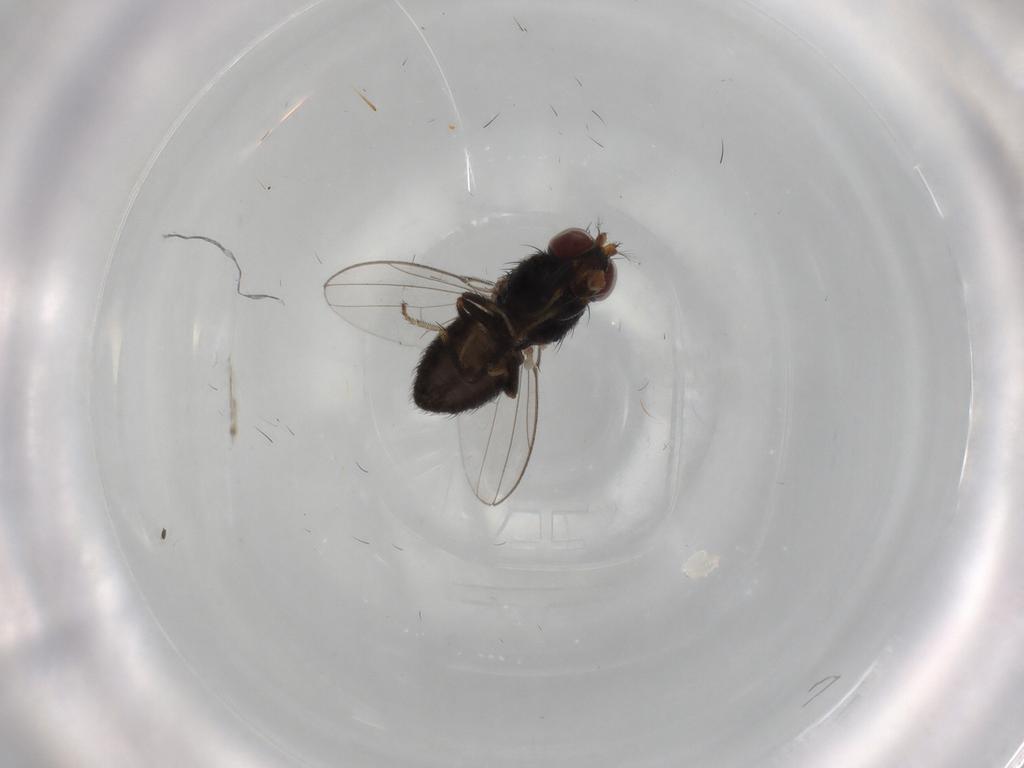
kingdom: Animalia
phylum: Arthropoda
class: Insecta
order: Diptera
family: Ephydridae
